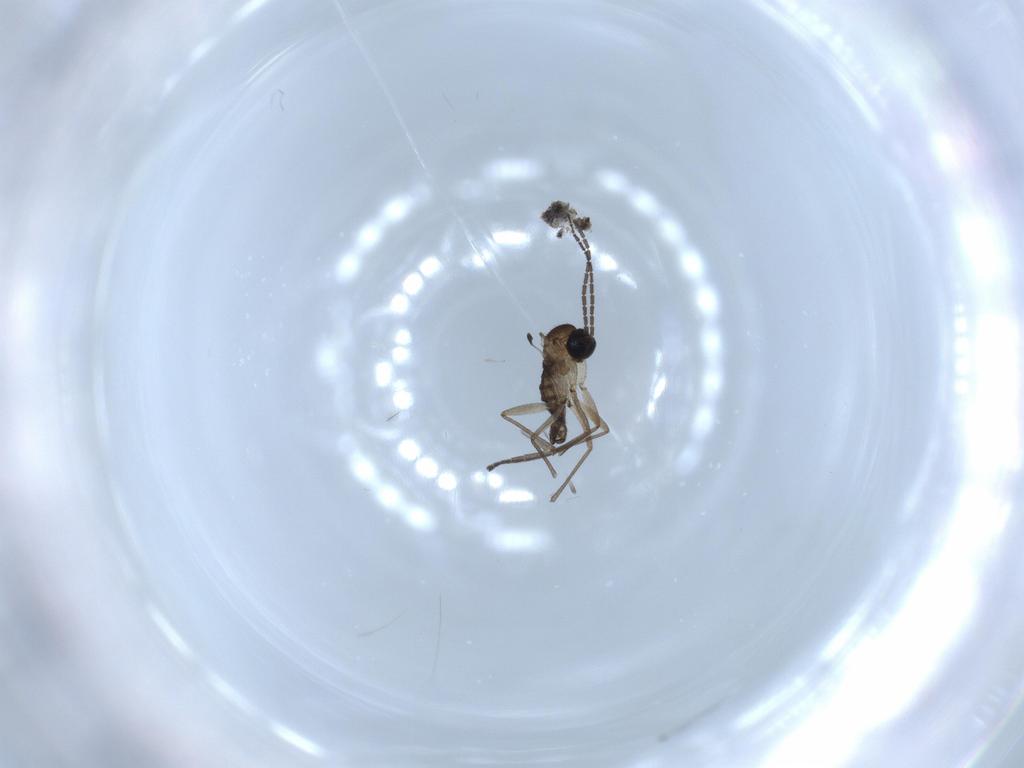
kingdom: Animalia
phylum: Arthropoda
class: Insecta
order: Diptera
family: Sciaridae
